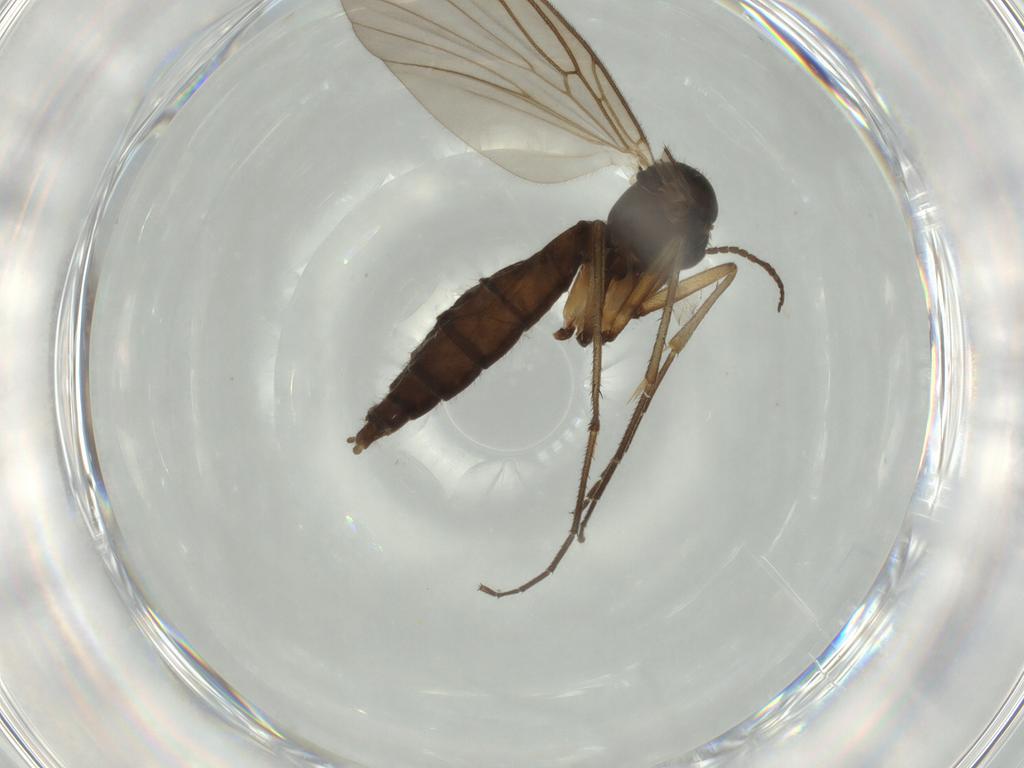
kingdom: Animalia
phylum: Arthropoda
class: Insecta
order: Diptera
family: Mycetophilidae
